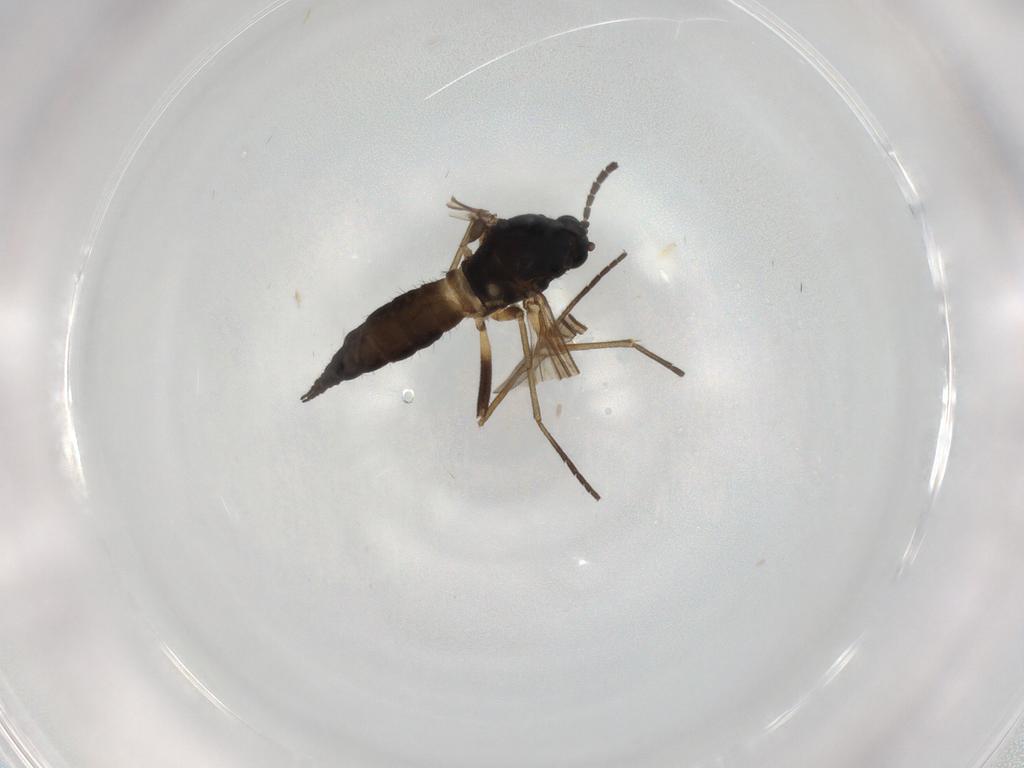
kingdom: Animalia
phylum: Arthropoda
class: Insecta
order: Diptera
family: Sciaridae
